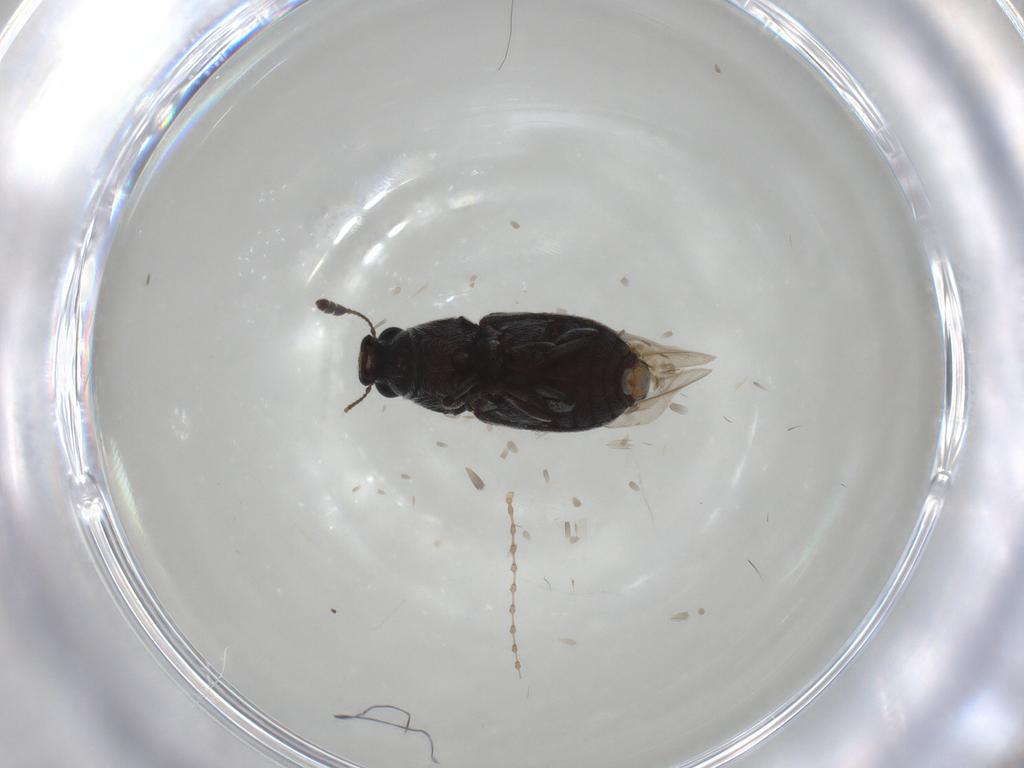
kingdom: Animalia
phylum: Arthropoda
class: Insecta
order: Coleoptera
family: Anthribidae
